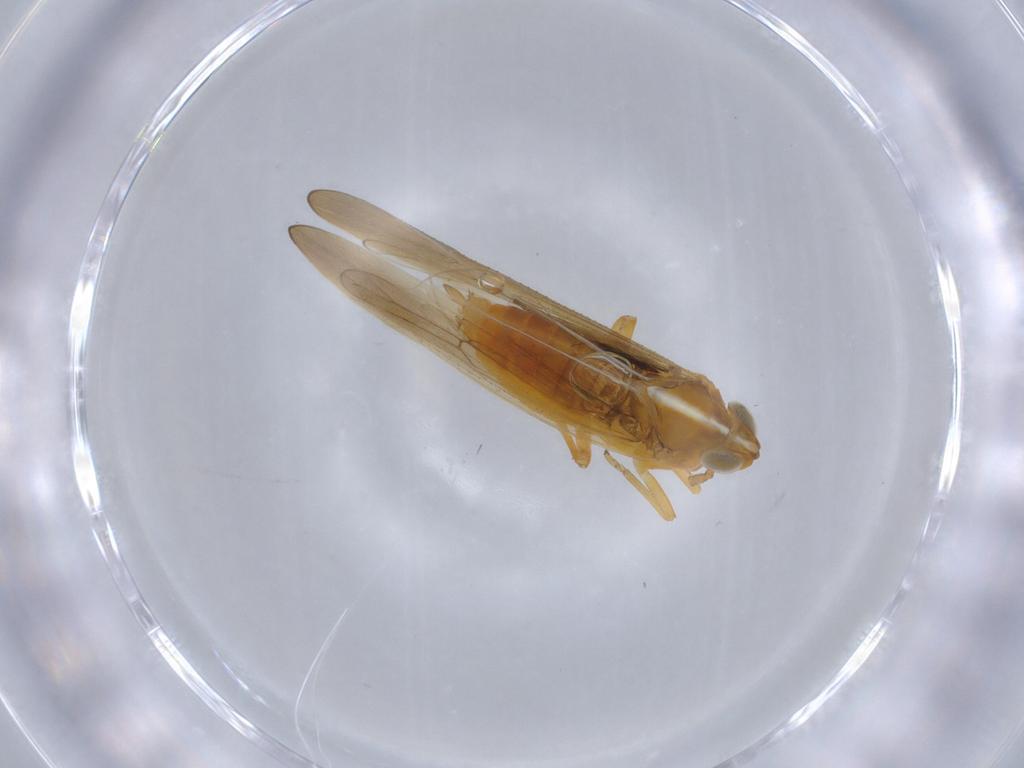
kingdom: Animalia
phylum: Arthropoda
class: Insecta
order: Hemiptera
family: Delphacidae
